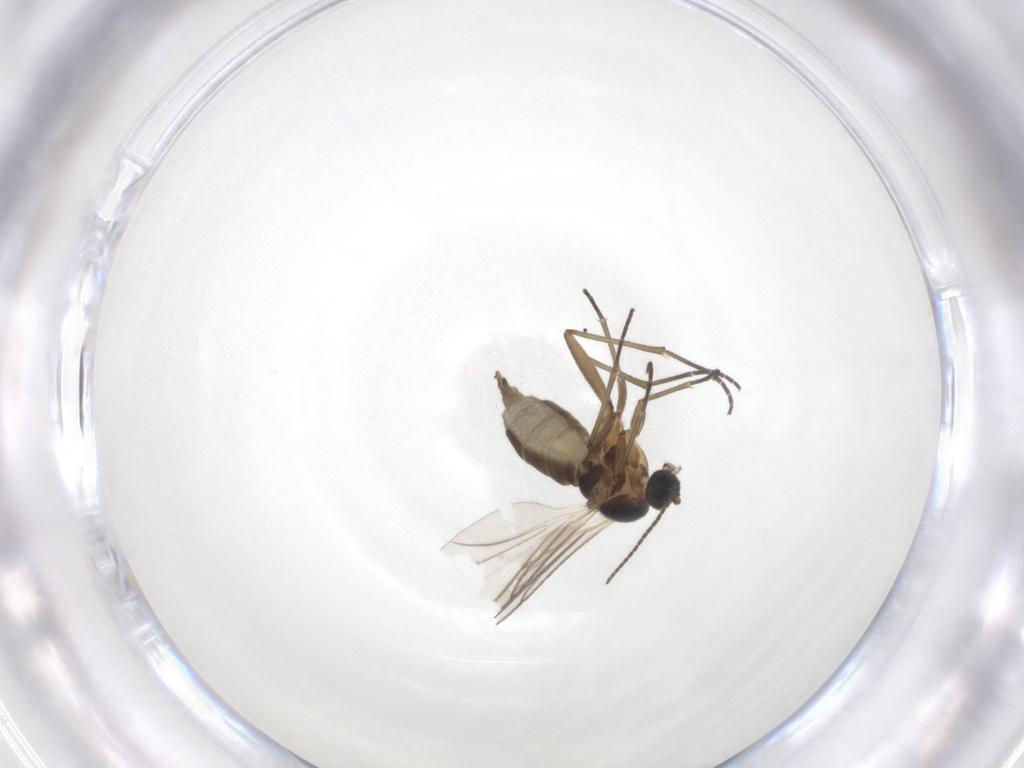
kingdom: Animalia
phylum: Arthropoda
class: Insecta
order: Diptera
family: Cecidomyiidae
